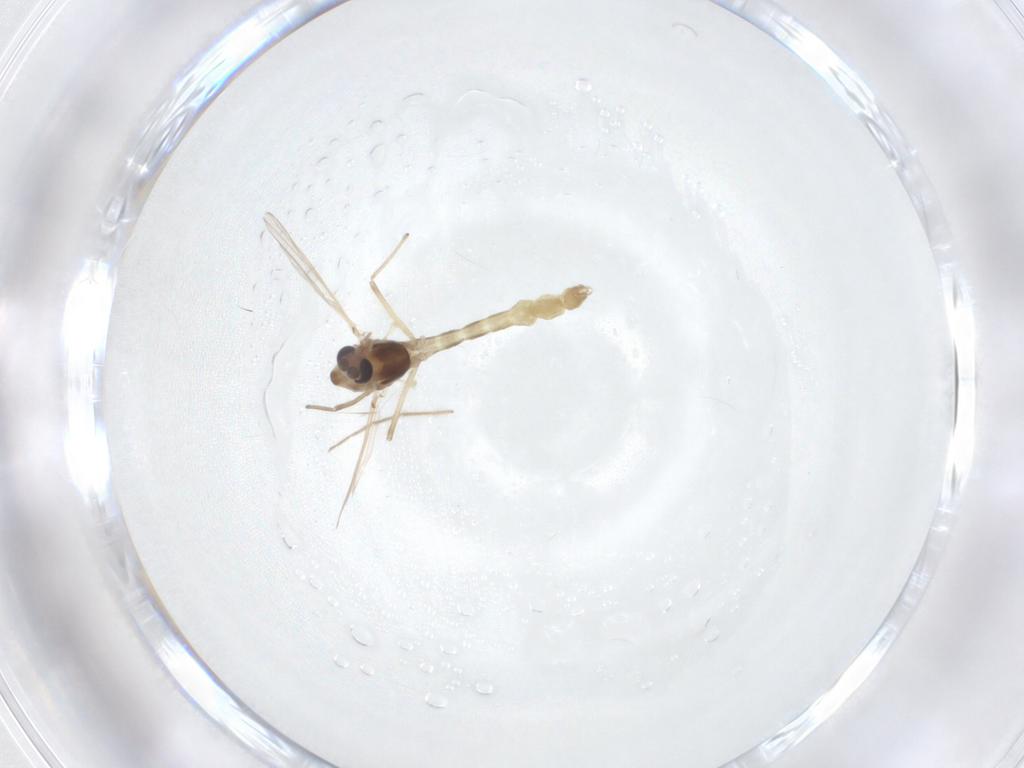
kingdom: Animalia
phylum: Arthropoda
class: Insecta
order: Diptera
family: Chironomidae
